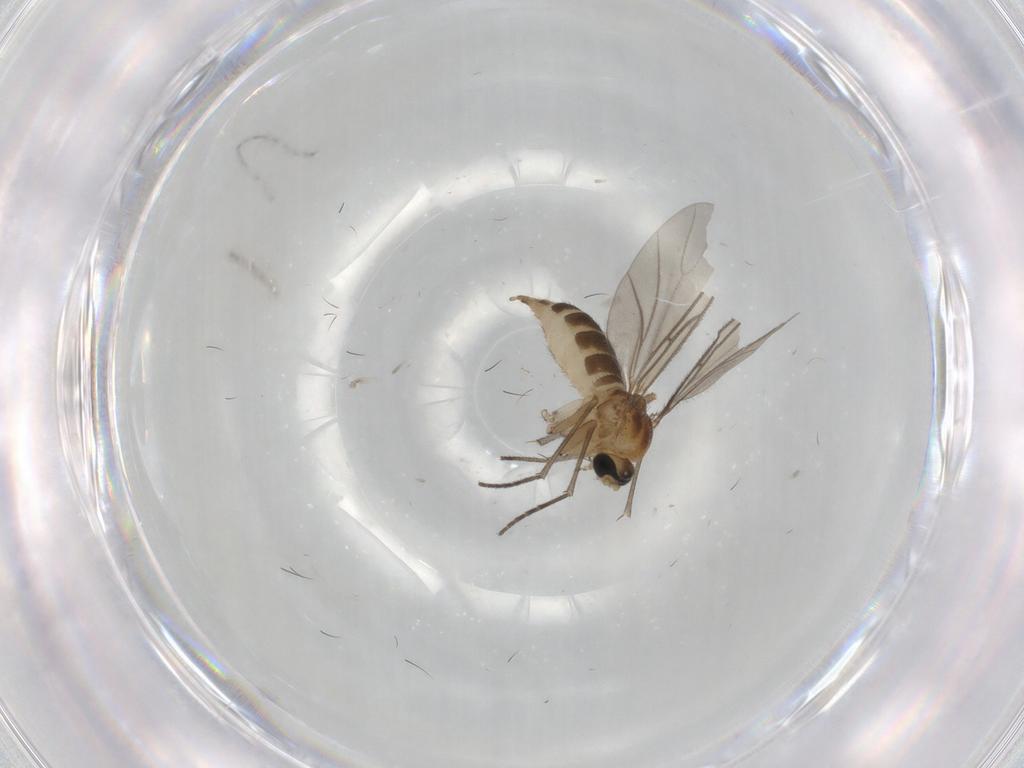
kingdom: Animalia
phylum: Arthropoda
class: Insecta
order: Diptera
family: Sciaridae
